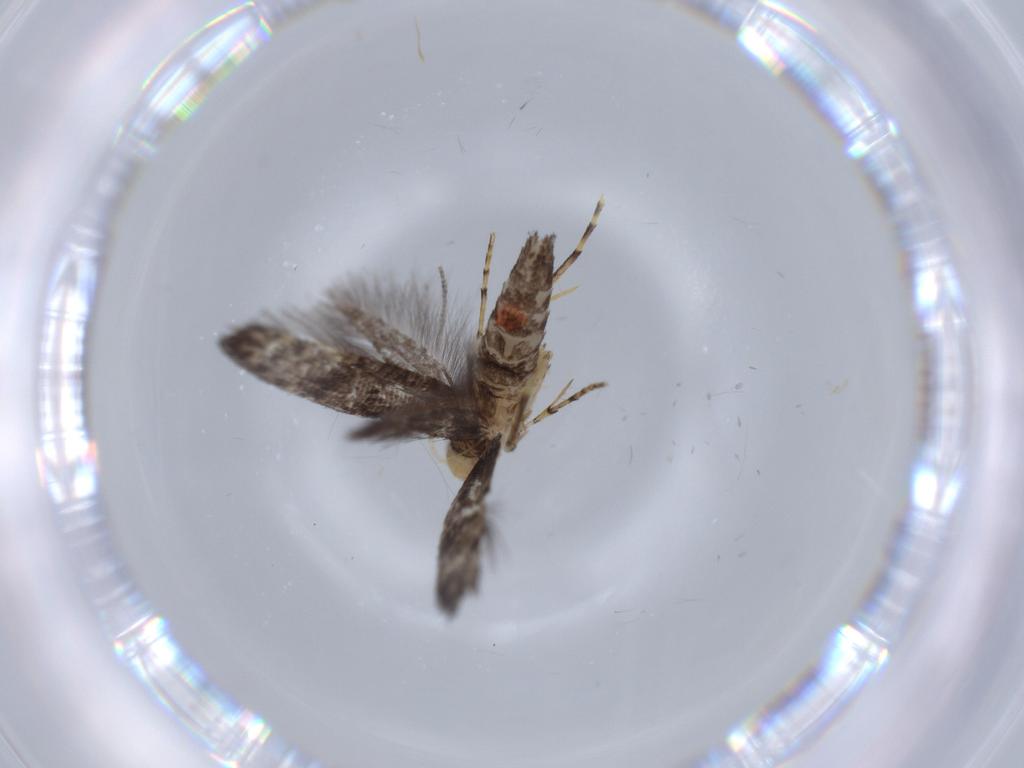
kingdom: Animalia
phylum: Arthropoda
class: Insecta
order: Lepidoptera
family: Argyresthiidae
